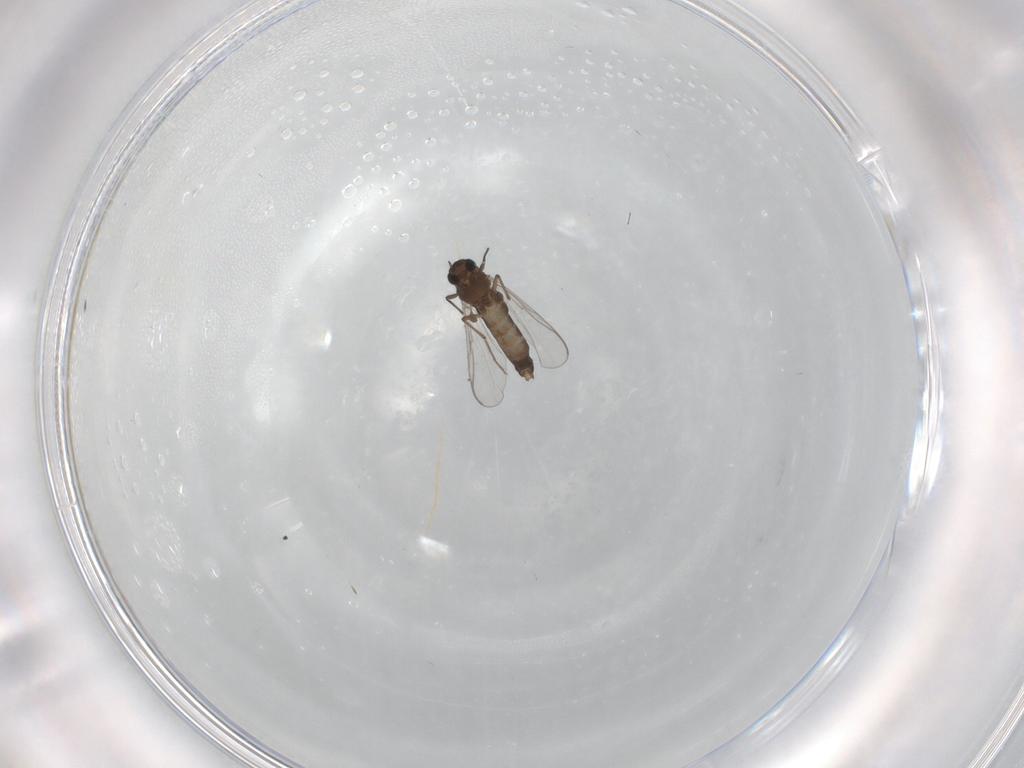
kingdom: Animalia
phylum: Arthropoda
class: Insecta
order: Diptera
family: Chironomidae
